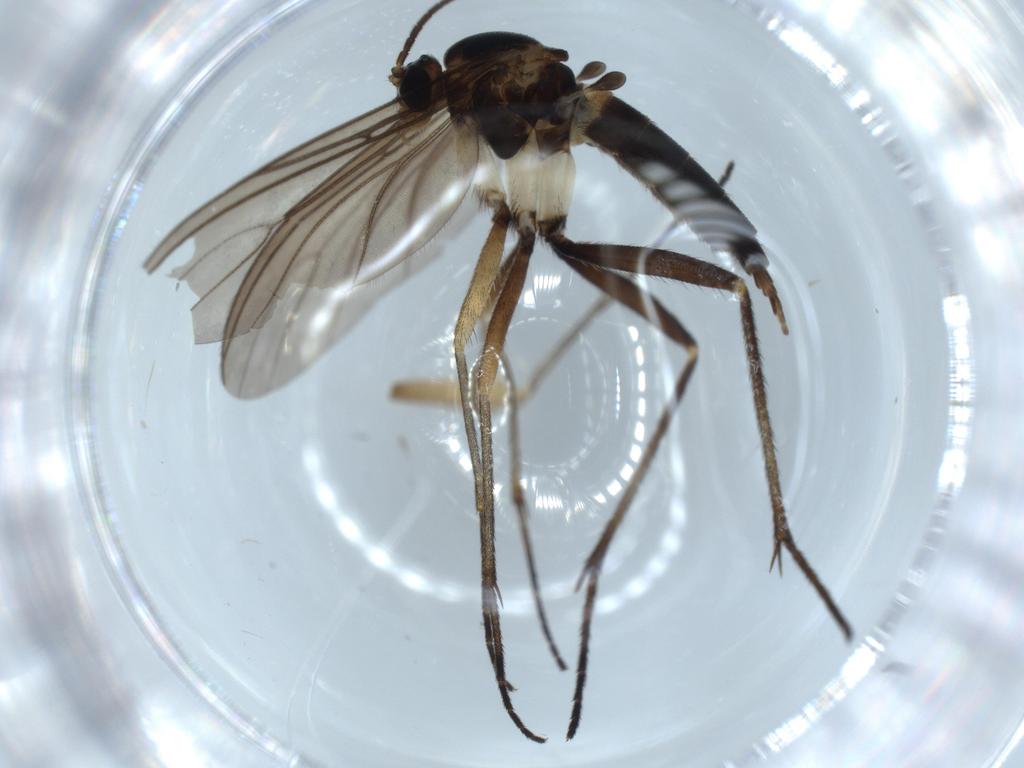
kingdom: Animalia
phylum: Arthropoda
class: Insecta
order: Diptera
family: Sciaridae
